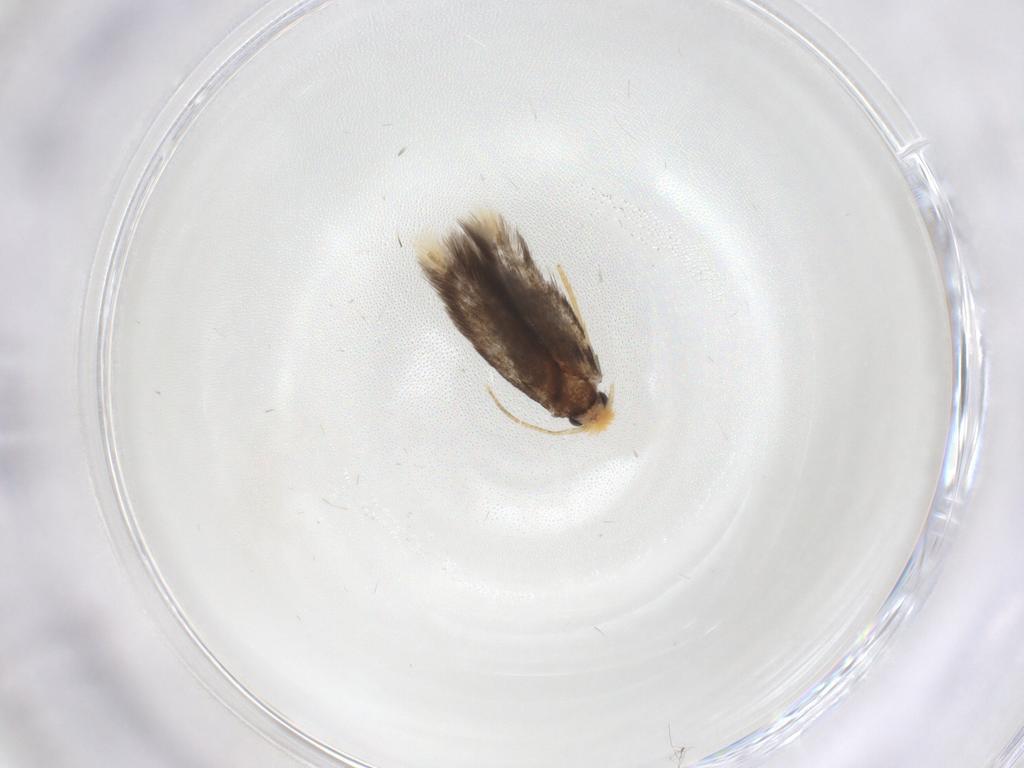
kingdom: Animalia
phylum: Arthropoda
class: Insecta
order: Lepidoptera
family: Nepticulidae
